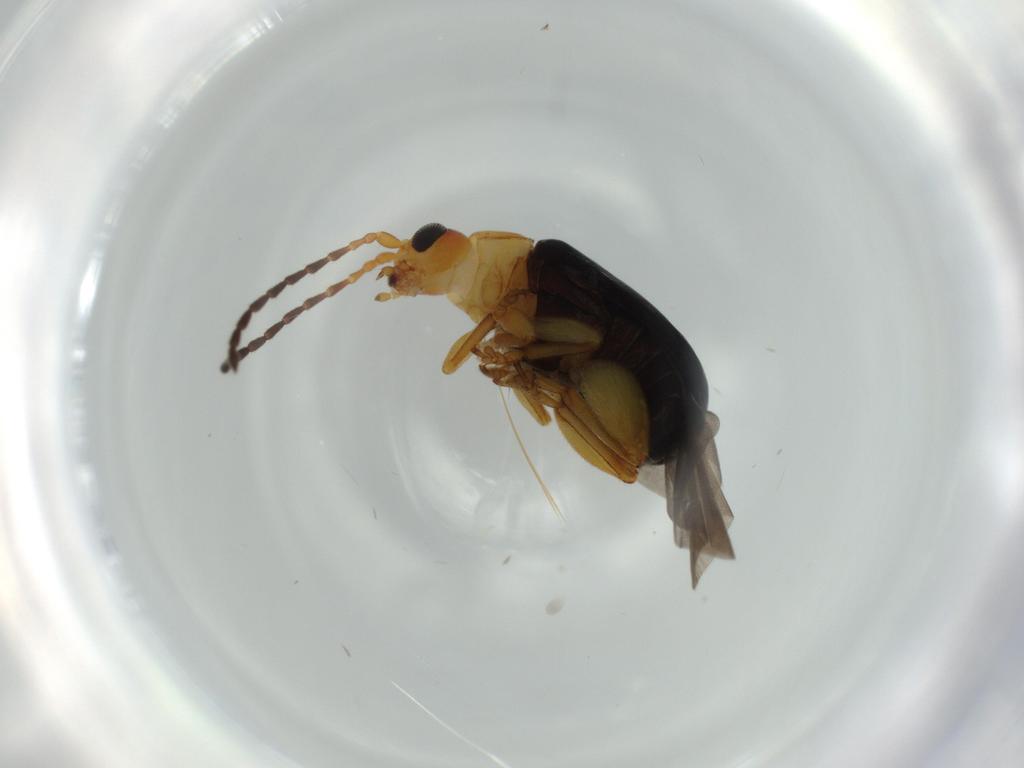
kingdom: Animalia
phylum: Arthropoda
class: Insecta
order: Coleoptera
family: Chrysomelidae
